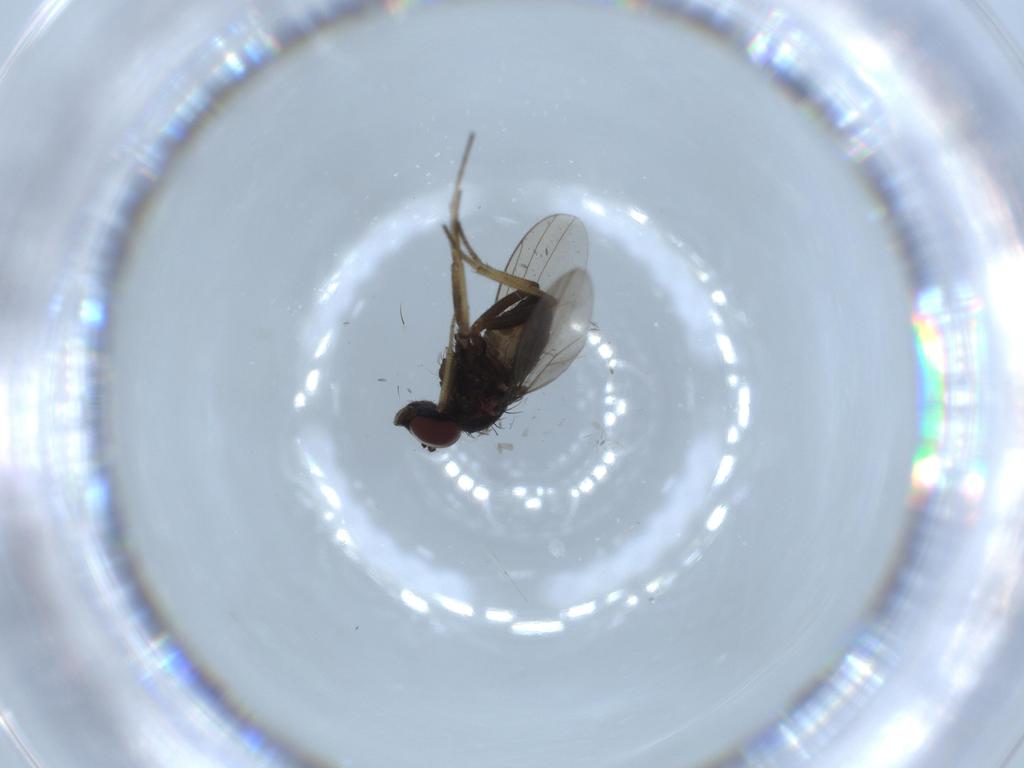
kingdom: Animalia
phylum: Arthropoda
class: Insecta
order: Diptera
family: Dolichopodidae
